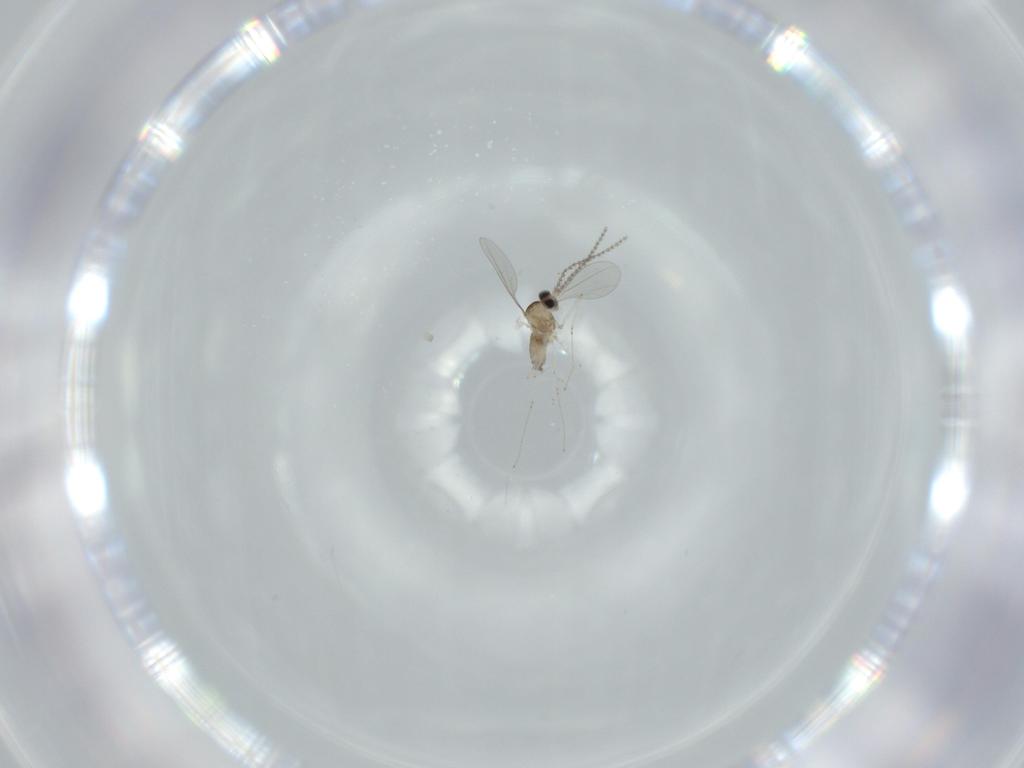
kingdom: Animalia
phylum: Arthropoda
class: Insecta
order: Diptera
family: Cecidomyiidae
